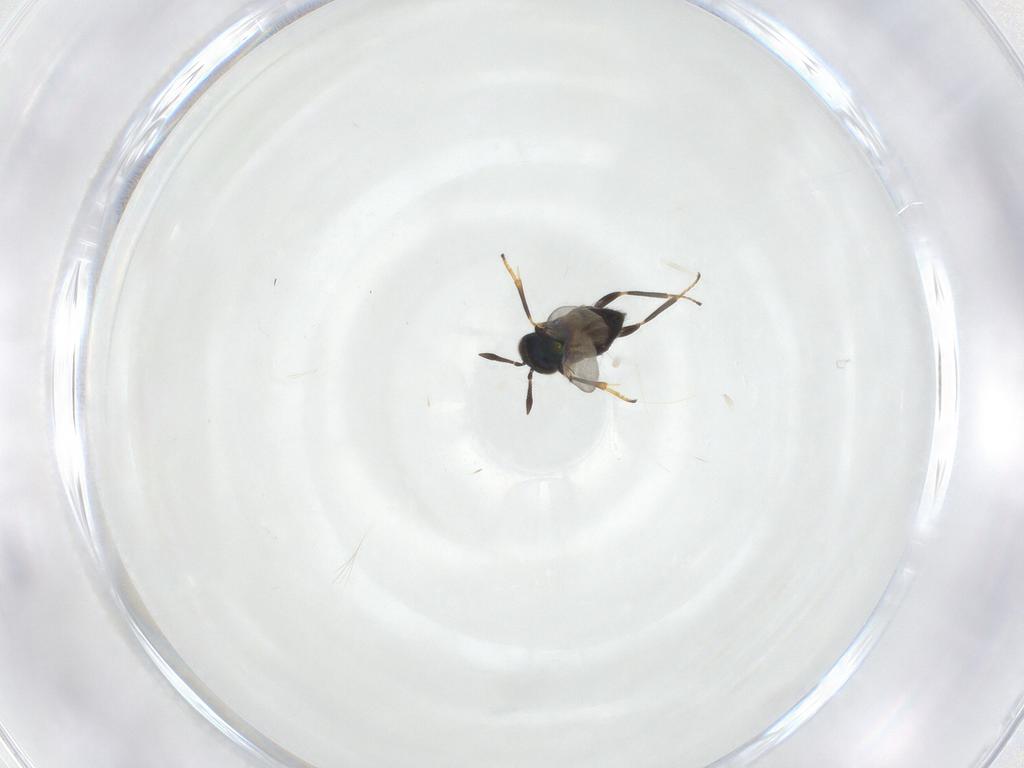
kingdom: Animalia
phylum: Arthropoda
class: Insecta
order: Hymenoptera
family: Encyrtidae
